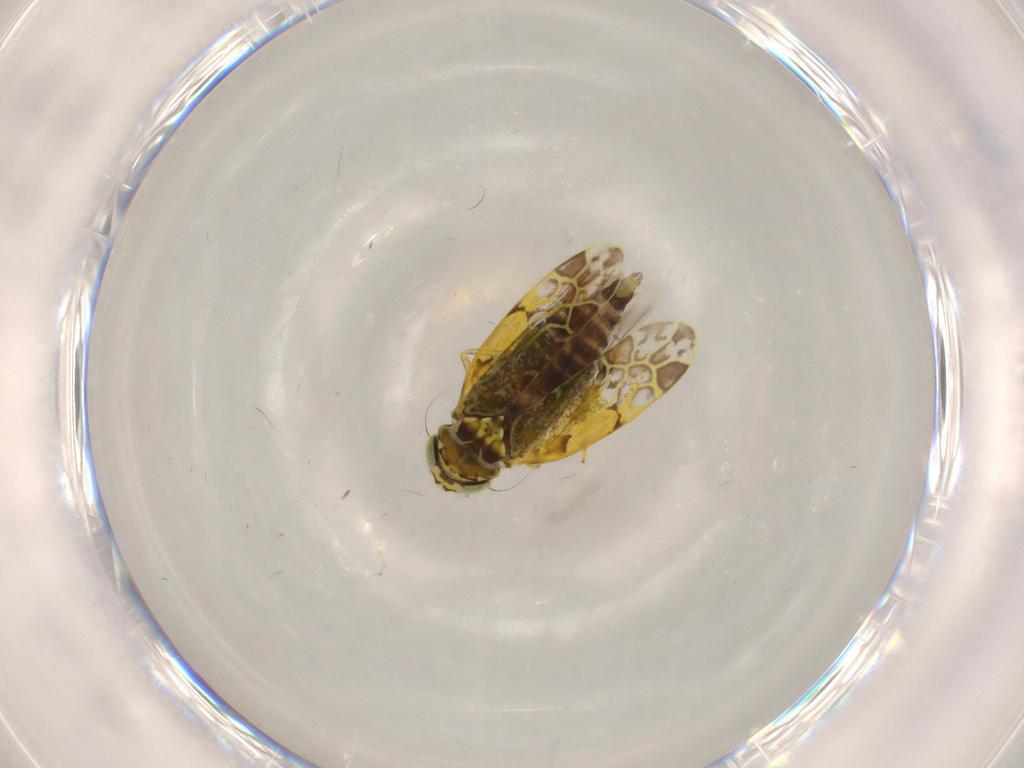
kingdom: Animalia
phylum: Arthropoda
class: Insecta
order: Hemiptera
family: Cicadellidae
